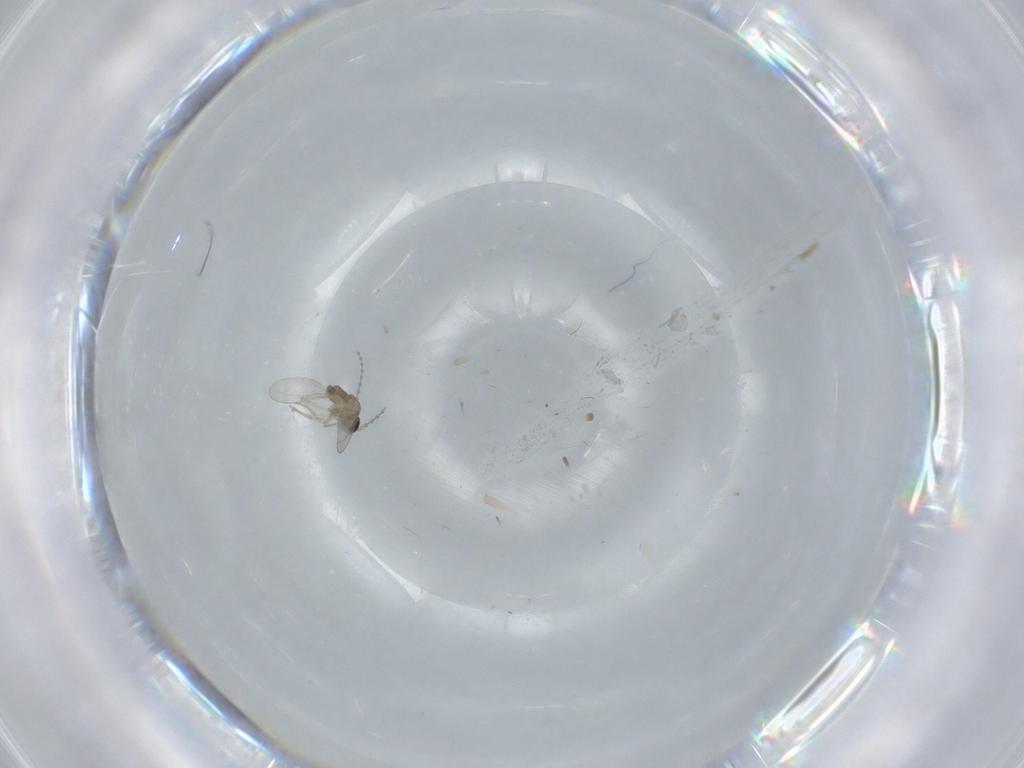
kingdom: Animalia
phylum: Arthropoda
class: Insecta
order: Diptera
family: Cecidomyiidae
